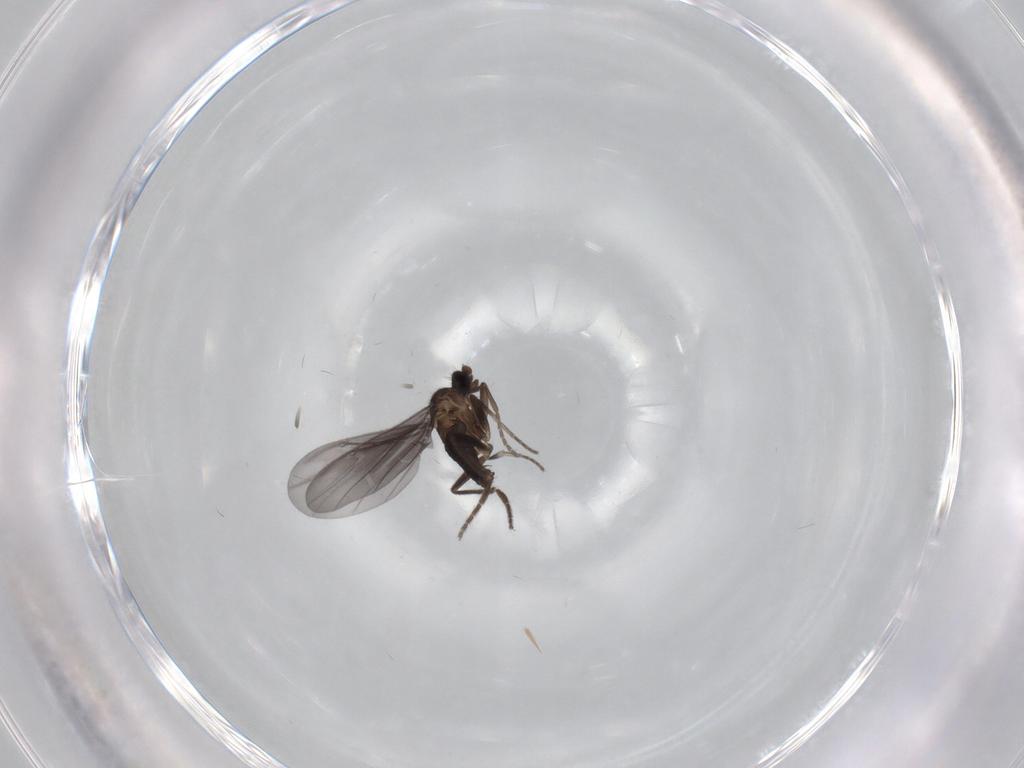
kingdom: Animalia
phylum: Arthropoda
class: Insecta
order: Diptera
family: Phoridae
